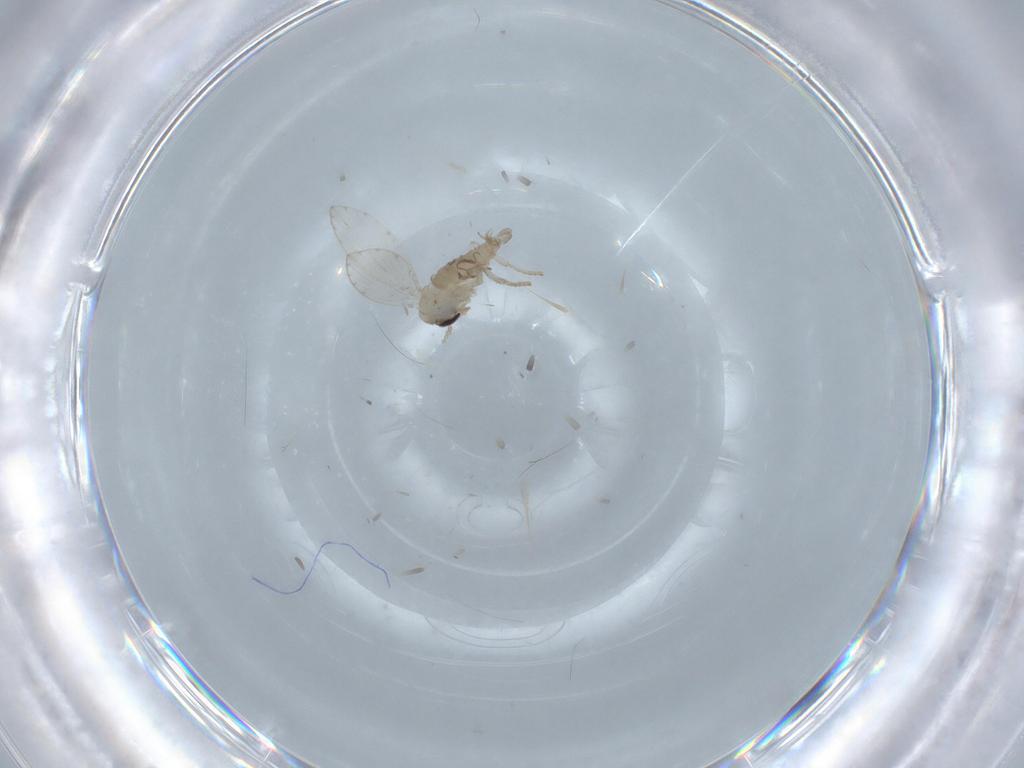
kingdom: Animalia
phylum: Arthropoda
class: Insecta
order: Diptera
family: Psychodidae
